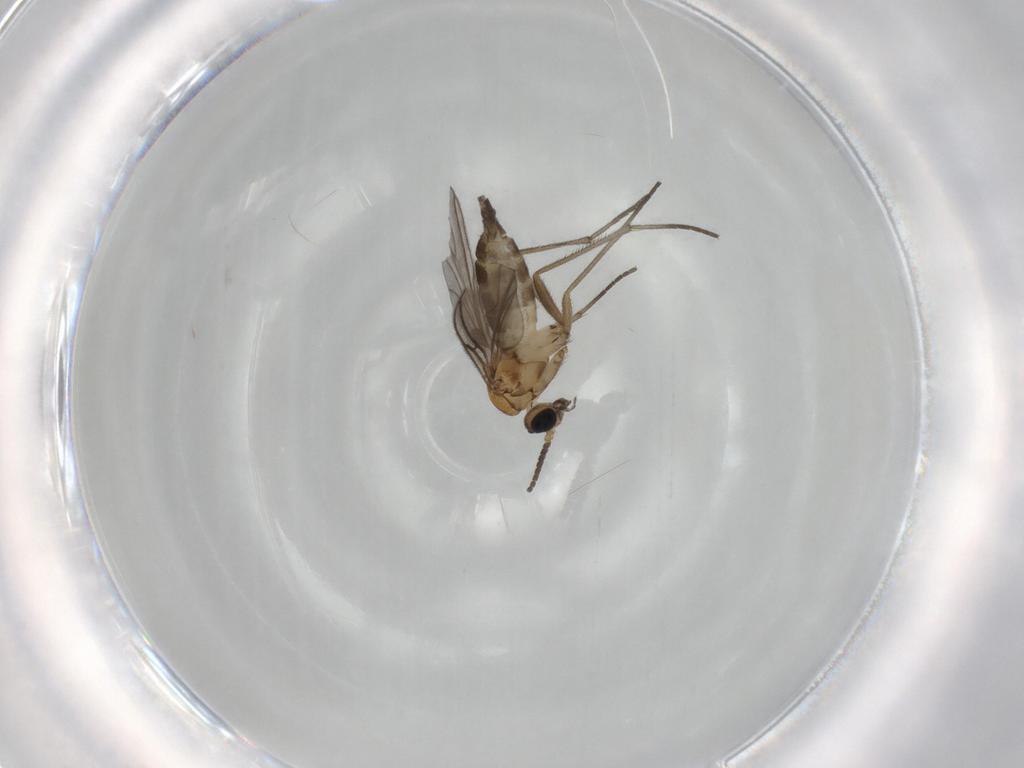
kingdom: Animalia
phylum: Arthropoda
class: Insecta
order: Diptera
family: Sciaridae
